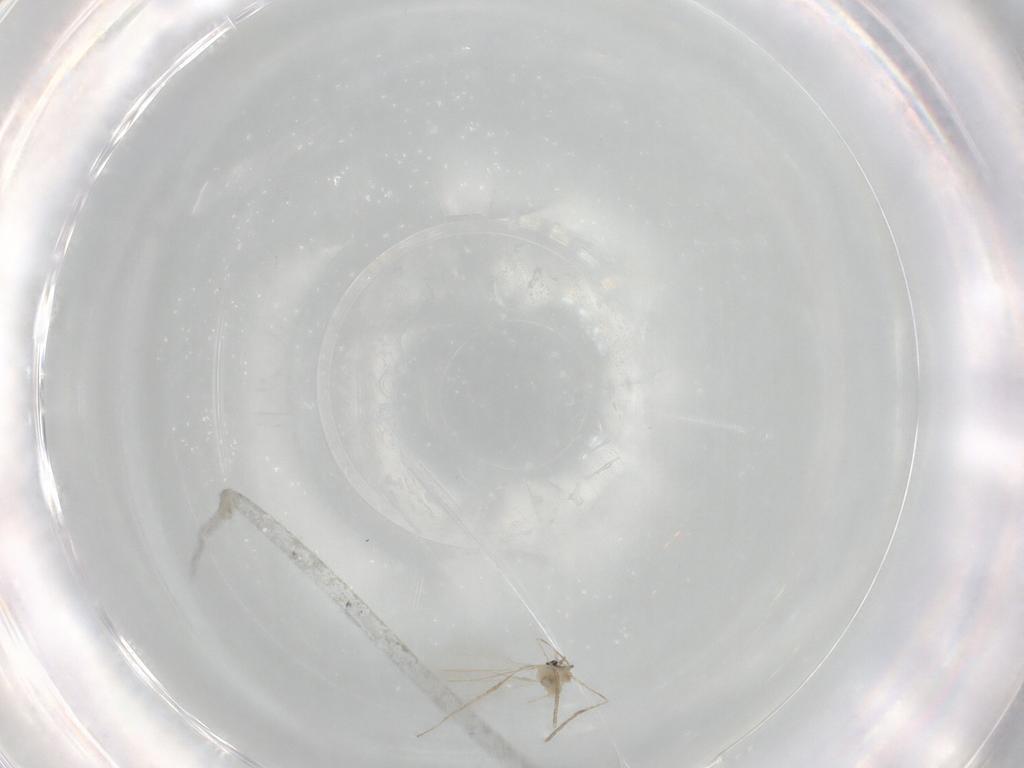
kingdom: Animalia
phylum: Arthropoda
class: Insecta
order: Diptera
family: Cecidomyiidae
